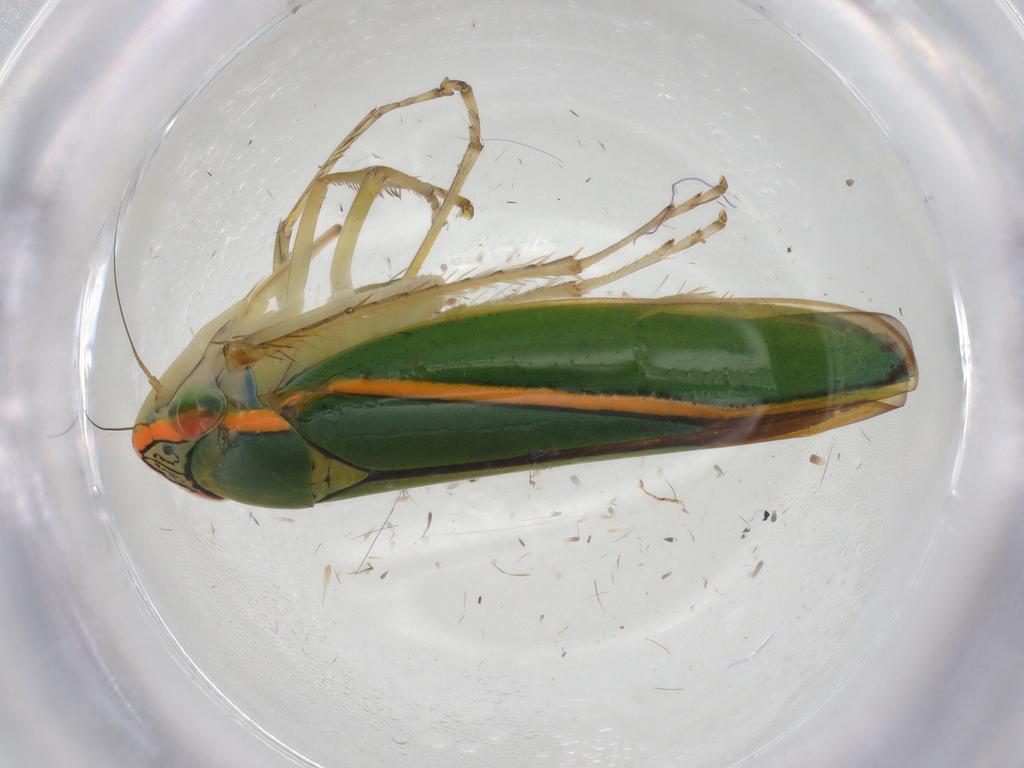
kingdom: Animalia
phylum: Arthropoda
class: Insecta
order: Hemiptera
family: Cicadellidae
